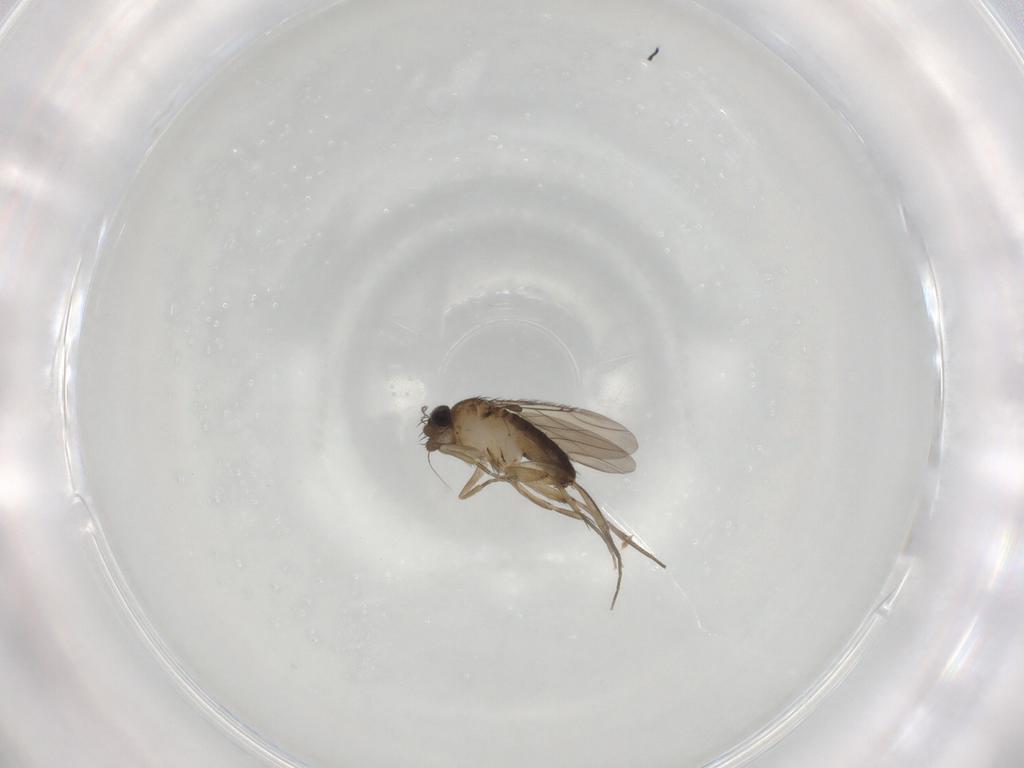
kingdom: Animalia
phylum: Arthropoda
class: Insecta
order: Diptera
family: Phoridae
